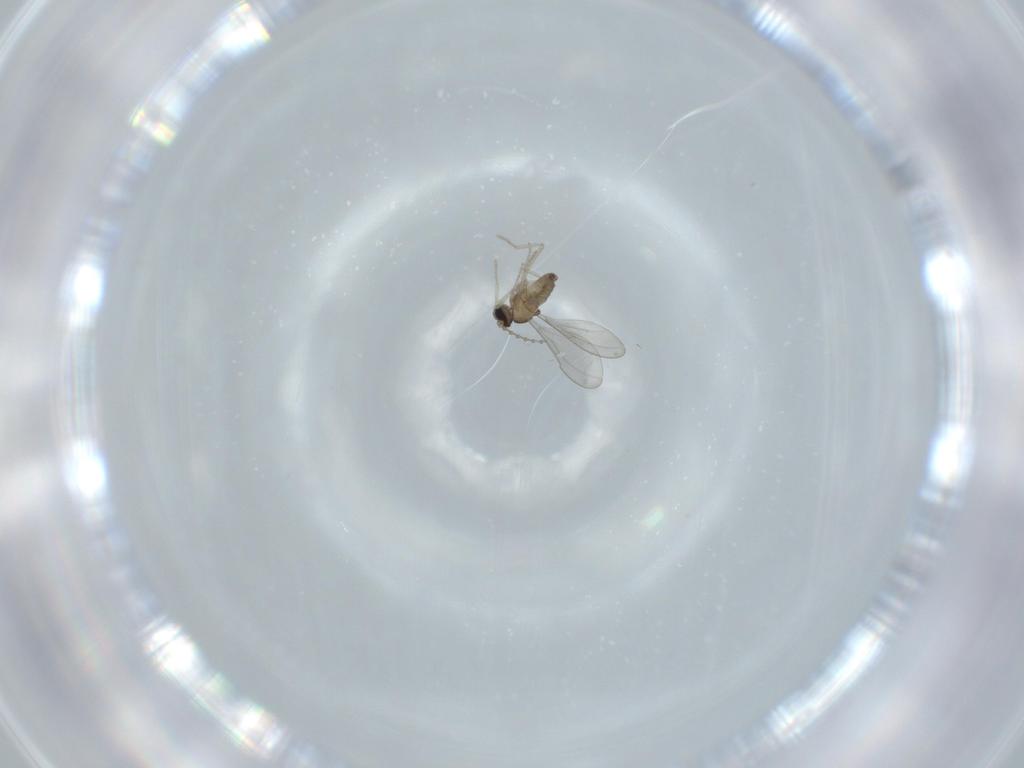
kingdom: Animalia
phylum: Arthropoda
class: Insecta
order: Diptera
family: Cecidomyiidae
